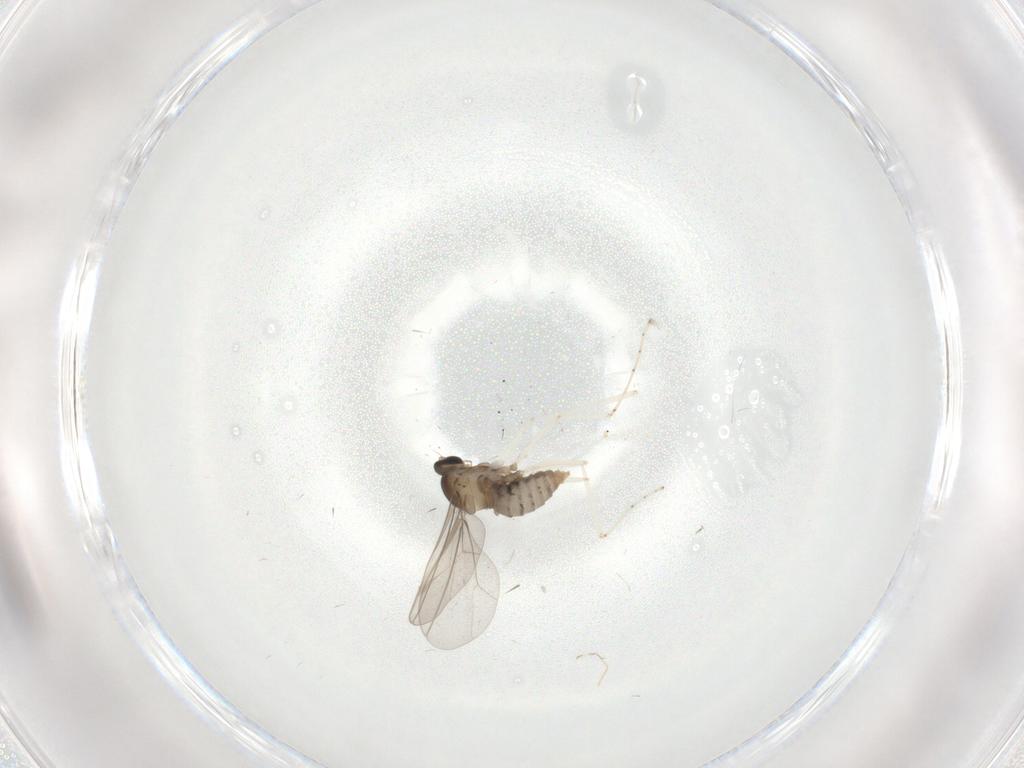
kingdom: Animalia
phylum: Arthropoda
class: Insecta
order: Diptera
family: Cecidomyiidae
